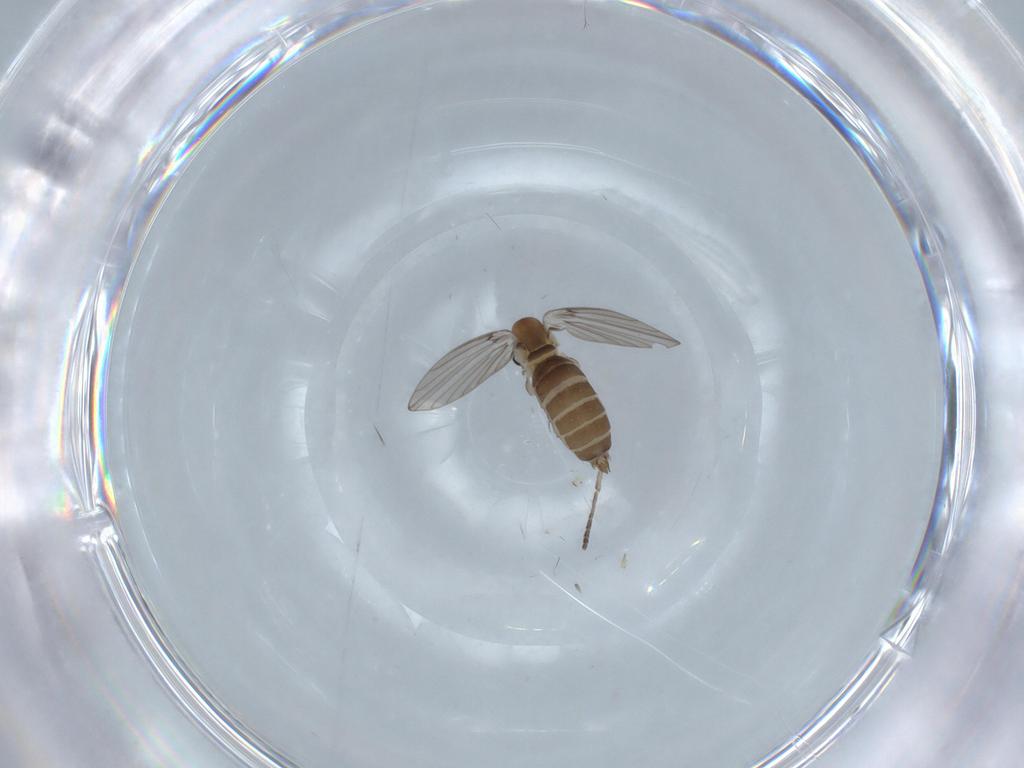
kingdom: Animalia
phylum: Arthropoda
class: Insecta
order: Diptera
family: Psychodidae
